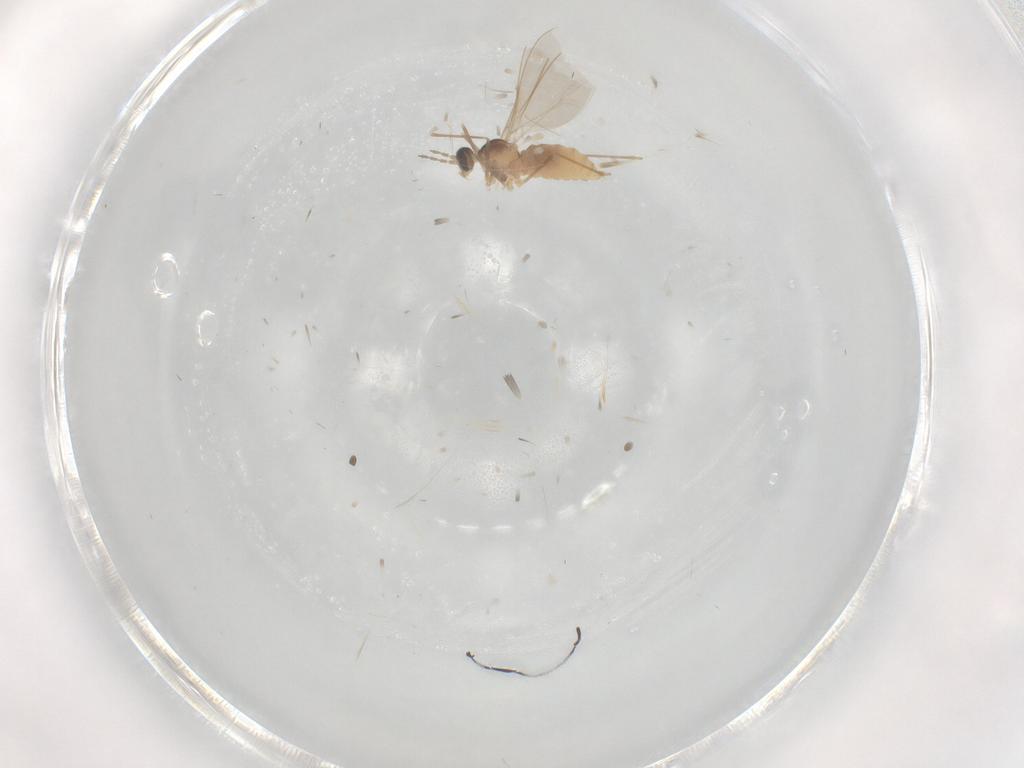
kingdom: Animalia
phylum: Arthropoda
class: Insecta
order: Diptera
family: Cecidomyiidae
